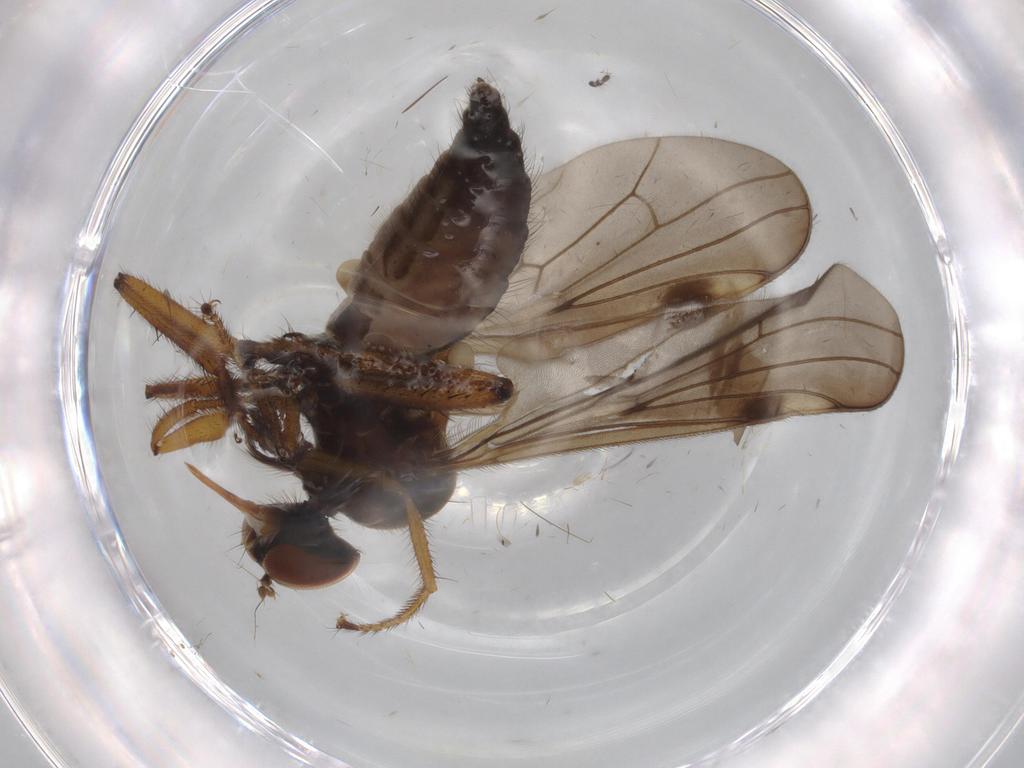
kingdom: Animalia
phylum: Arthropoda
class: Insecta
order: Diptera
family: Hybotidae
